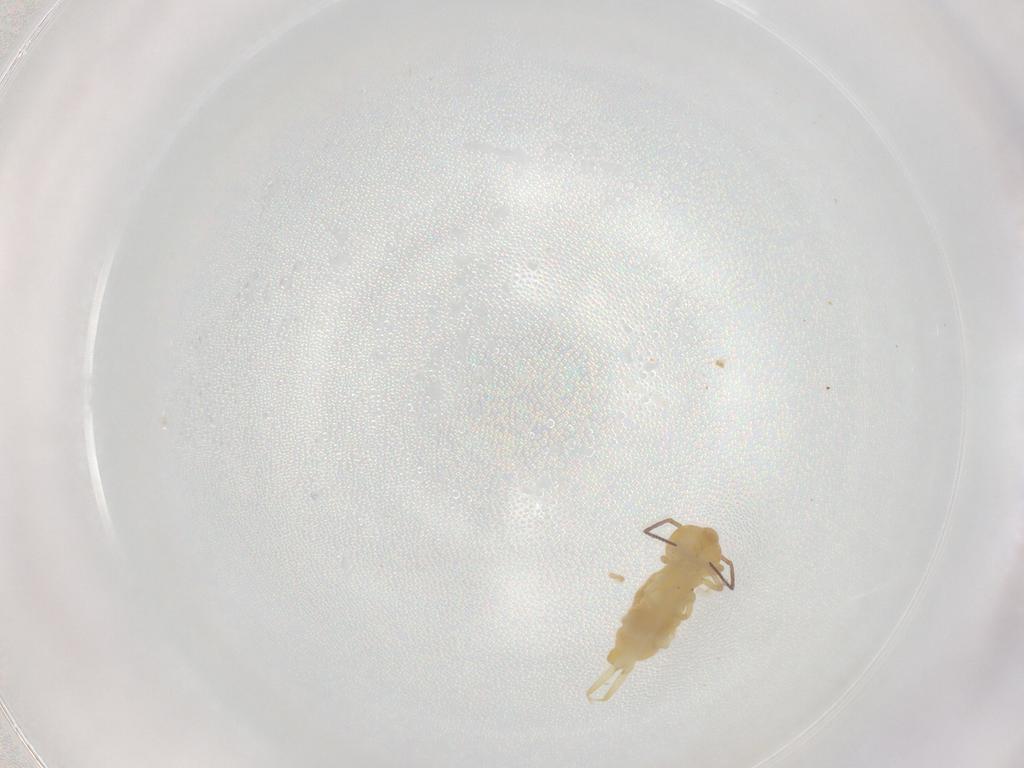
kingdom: Animalia
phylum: Arthropoda
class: Collembola
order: Symphypleona
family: Bourletiellidae
